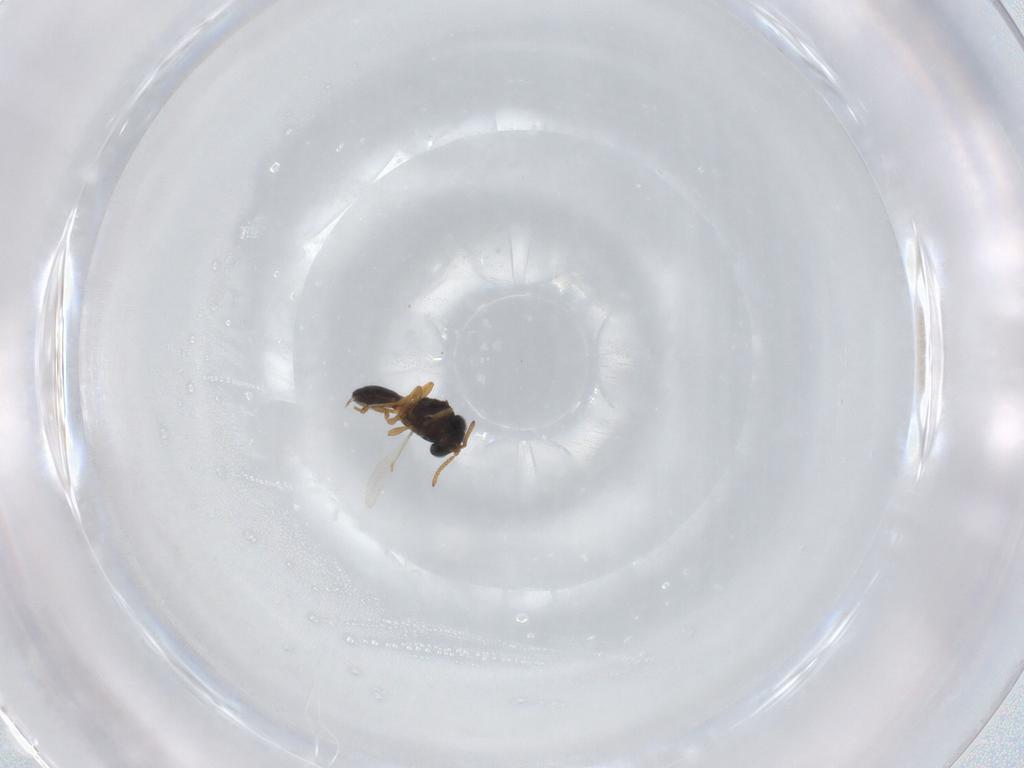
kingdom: Animalia
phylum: Arthropoda
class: Insecta
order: Hymenoptera
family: Scelionidae
